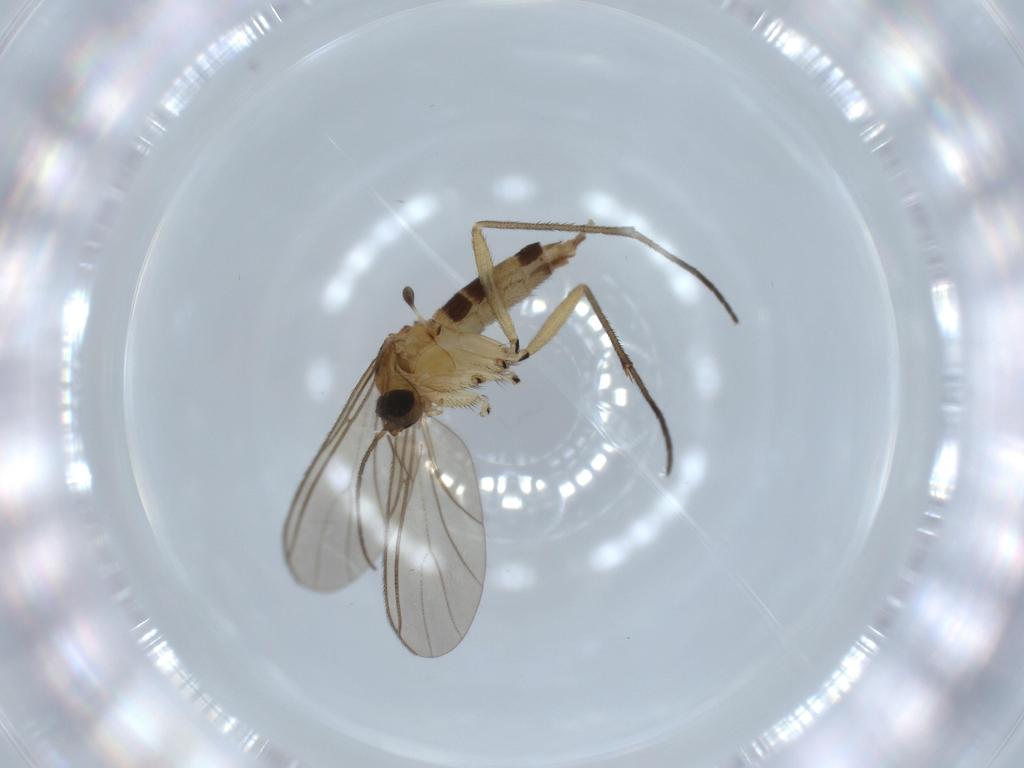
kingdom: Animalia
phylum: Arthropoda
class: Insecta
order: Diptera
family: Sciaridae
